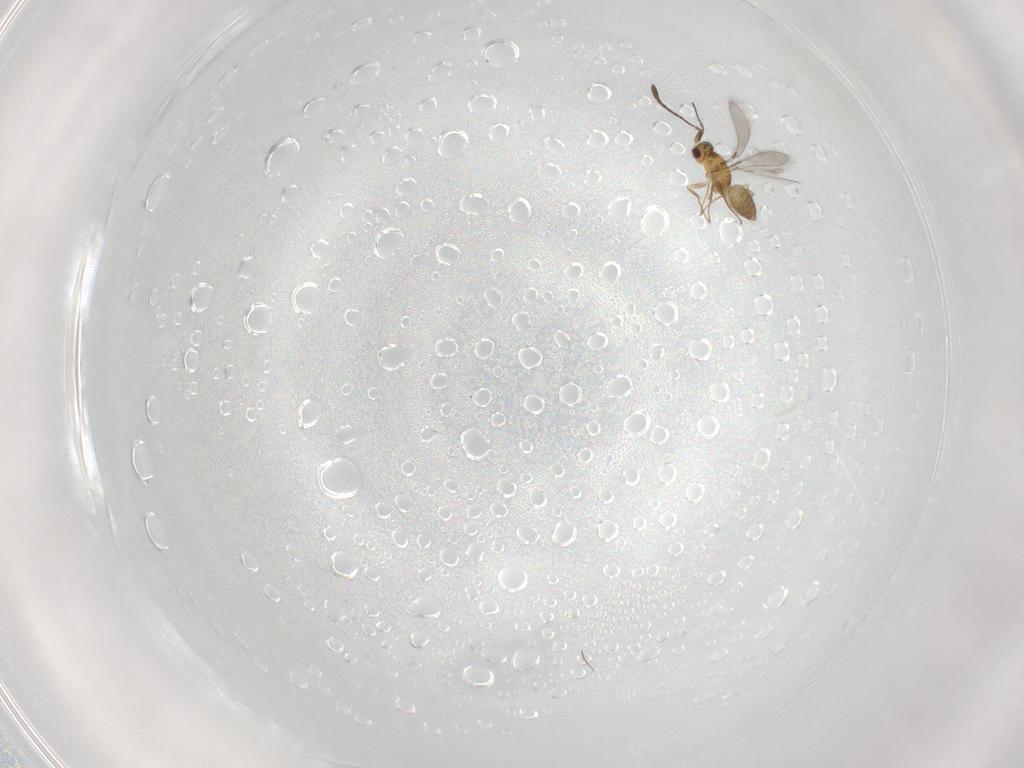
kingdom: Animalia
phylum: Arthropoda
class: Insecta
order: Hymenoptera
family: Mymaridae
